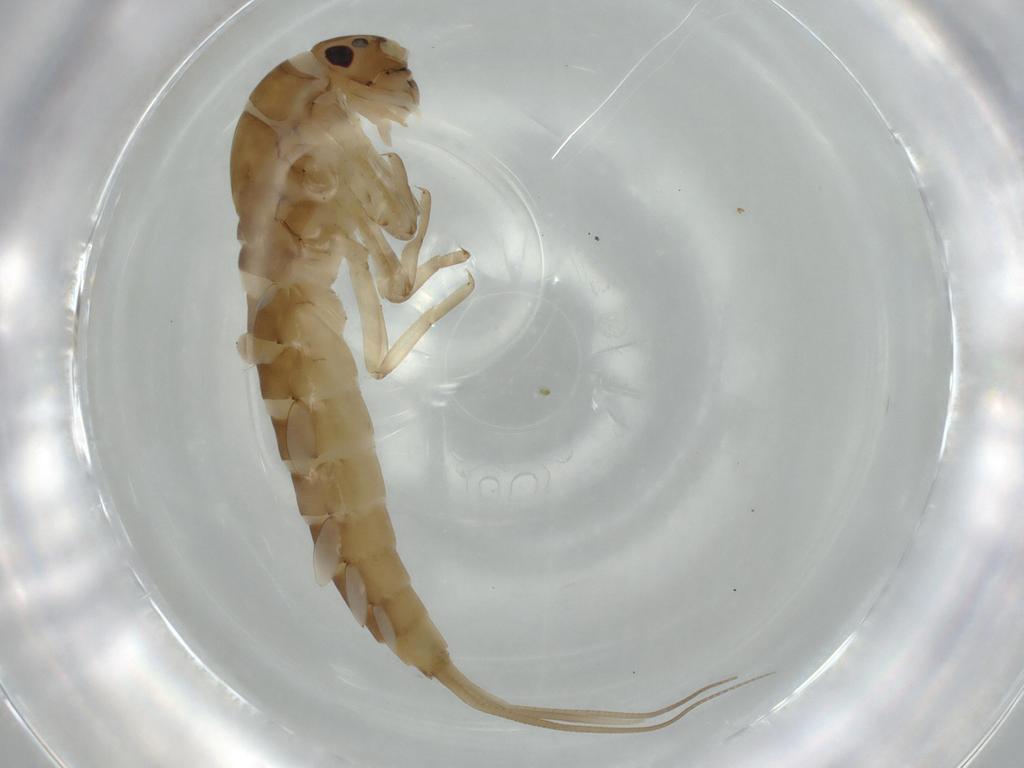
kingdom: Animalia
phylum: Arthropoda
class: Insecta
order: Ephemeroptera
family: Baetidae
